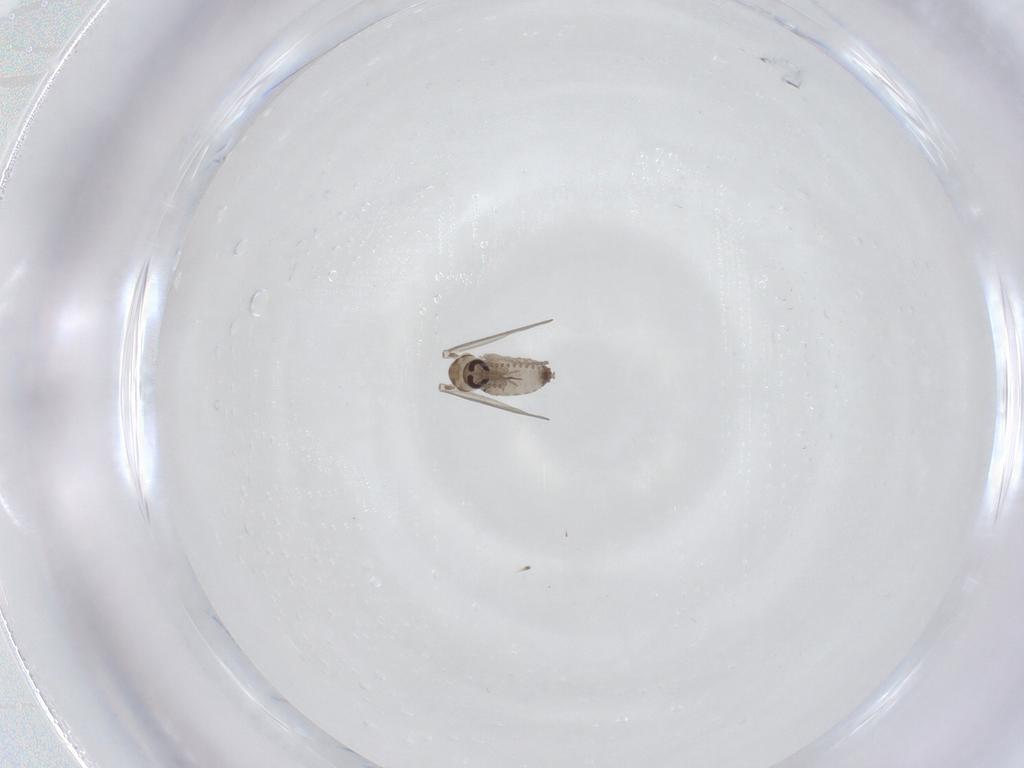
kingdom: Animalia
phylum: Arthropoda
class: Insecta
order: Diptera
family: Psychodidae
